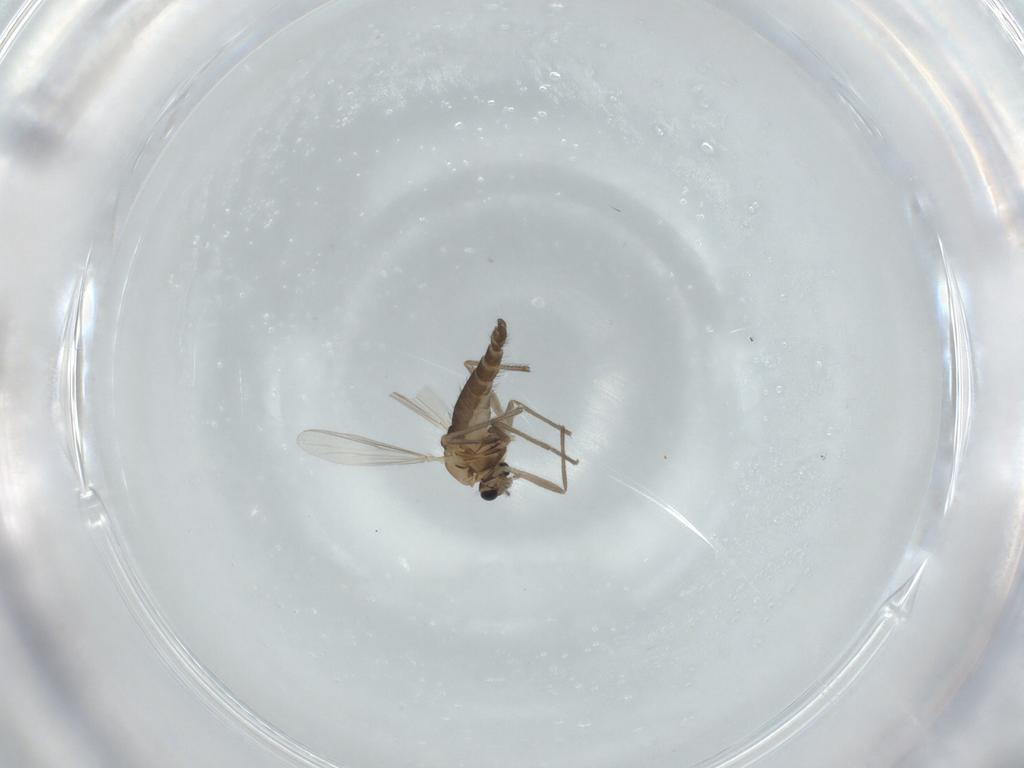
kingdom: Animalia
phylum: Arthropoda
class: Insecta
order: Diptera
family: Chironomidae
